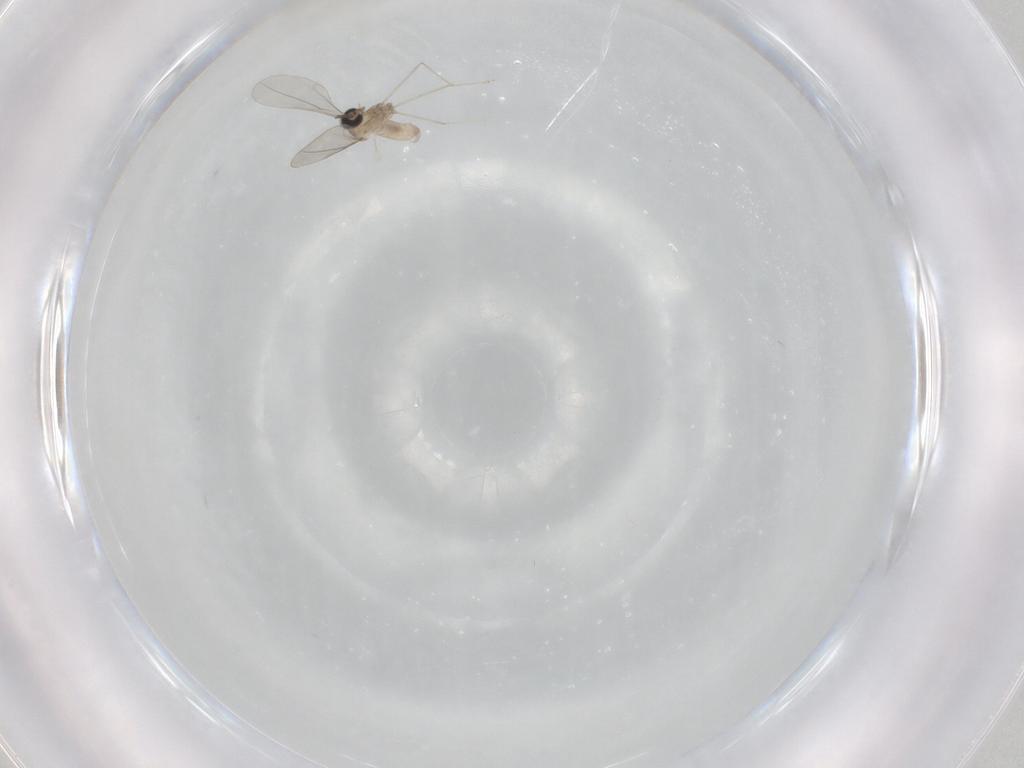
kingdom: Animalia
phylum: Arthropoda
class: Insecta
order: Diptera
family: Cecidomyiidae
